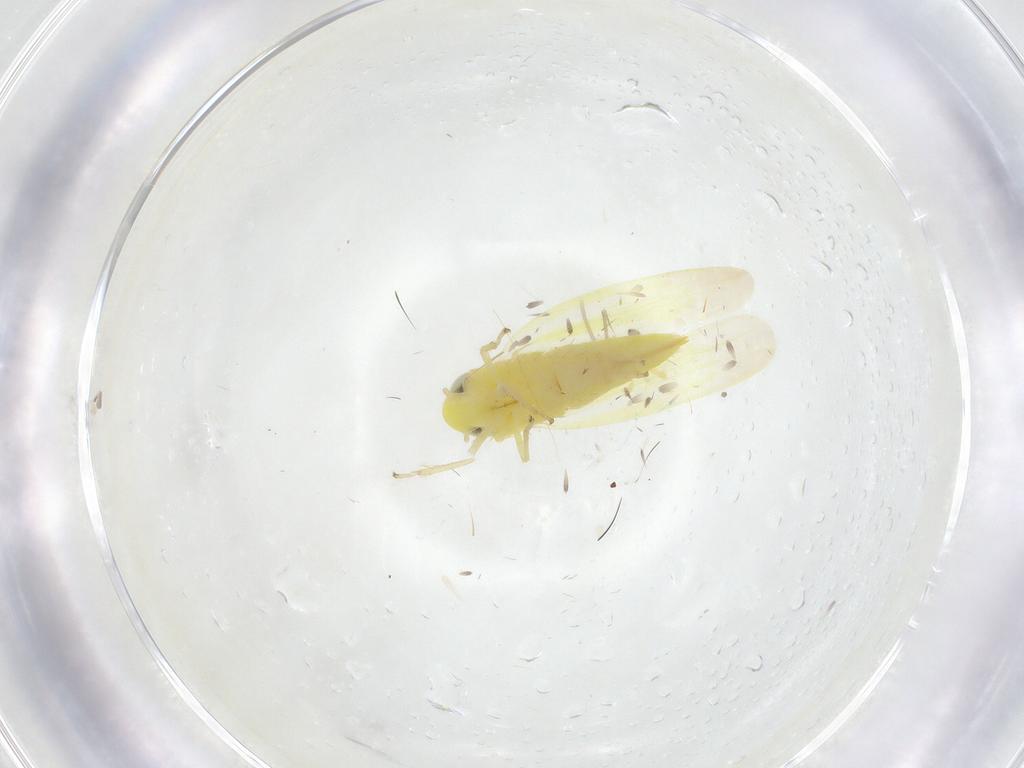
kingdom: Animalia
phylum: Arthropoda
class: Insecta
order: Hemiptera
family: Cicadellidae
